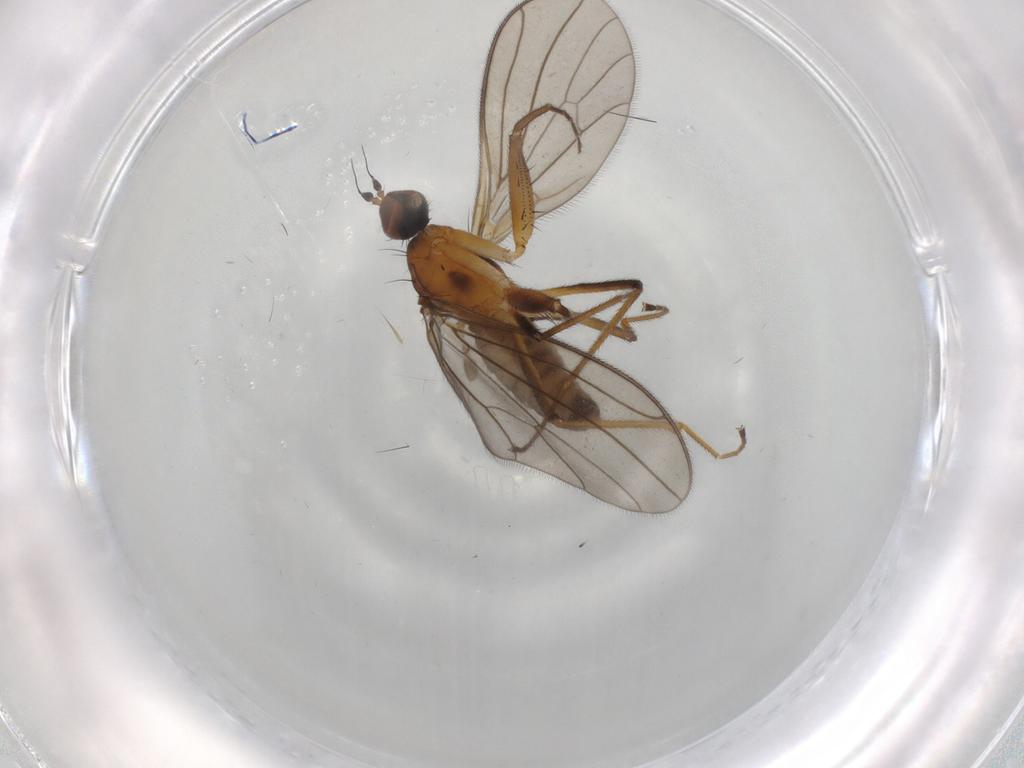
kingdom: Animalia
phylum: Arthropoda
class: Insecta
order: Diptera
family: Empididae
